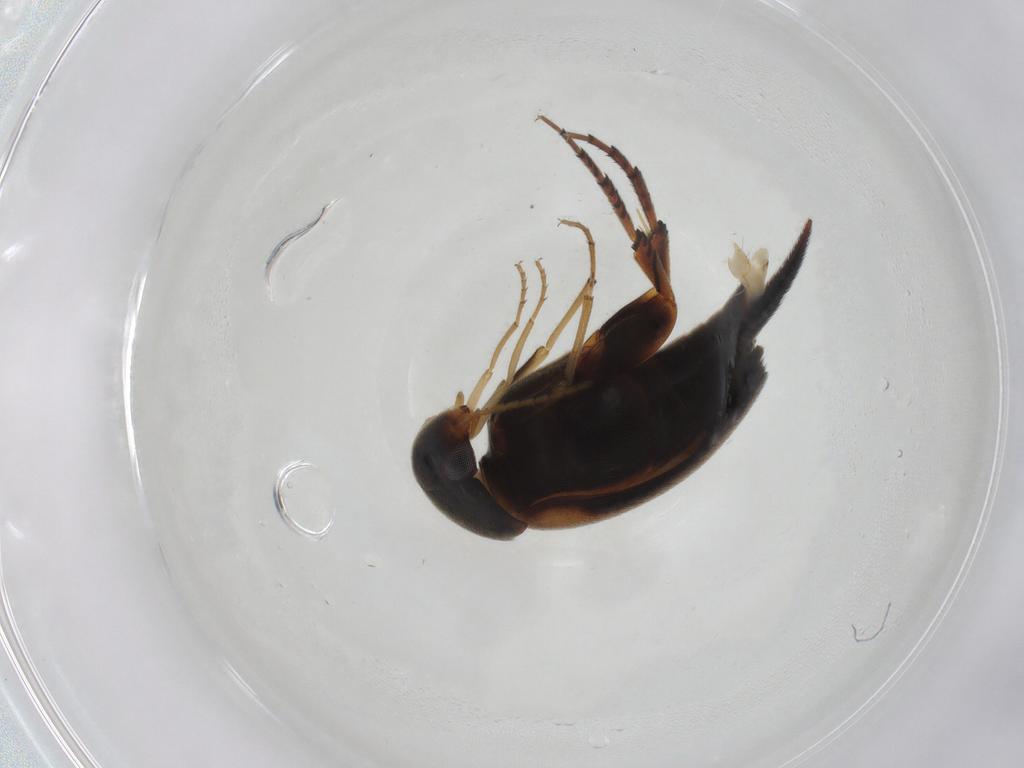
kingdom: Animalia
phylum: Arthropoda
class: Insecta
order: Coleoptera
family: Mordellidae
